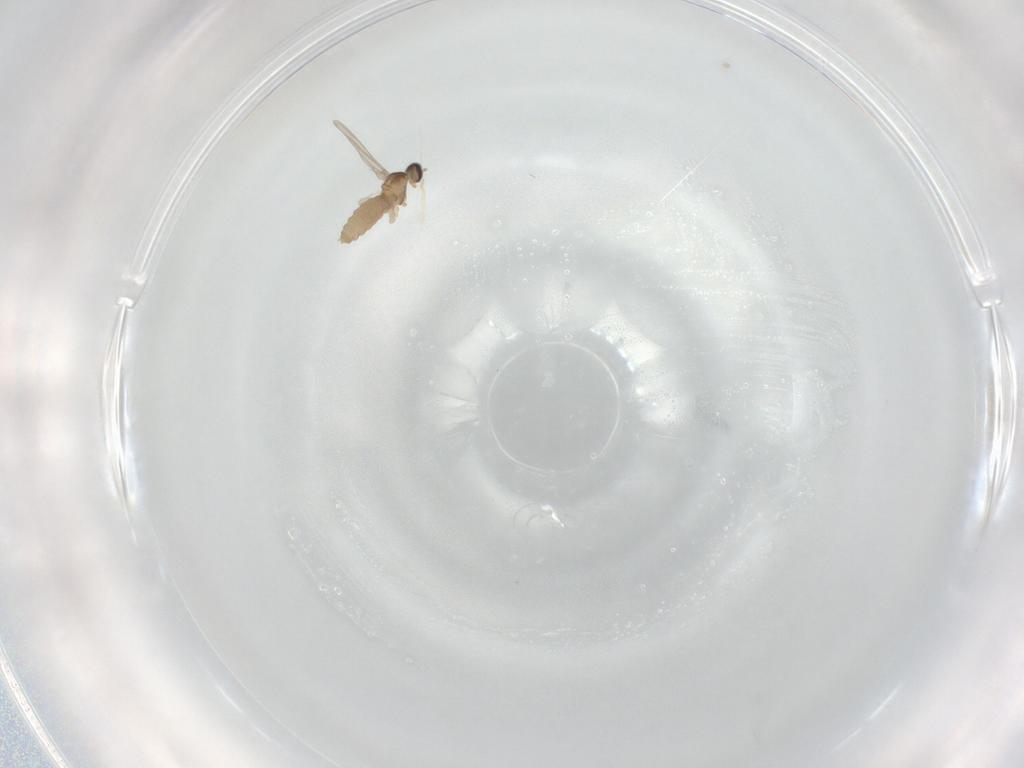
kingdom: Animalia
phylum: Arthropoda
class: Insecta
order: Diptera
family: Cecidomyiidae
